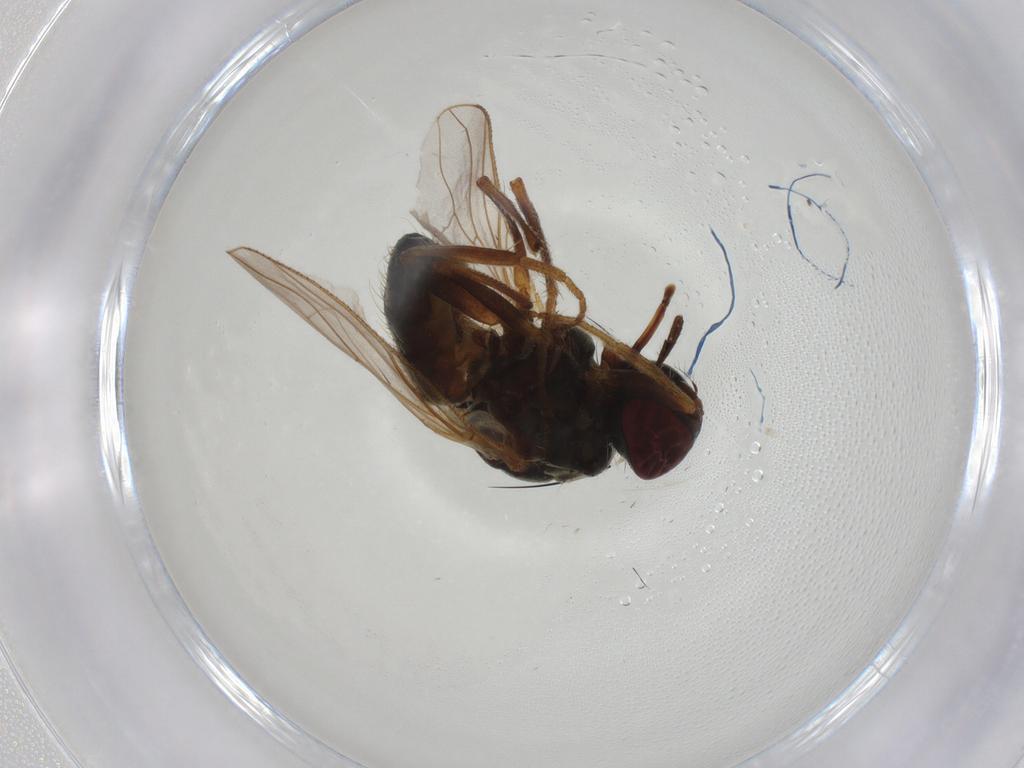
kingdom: Animalia
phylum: Arthropoda
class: Insecta
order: Diptera
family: Muscidae
